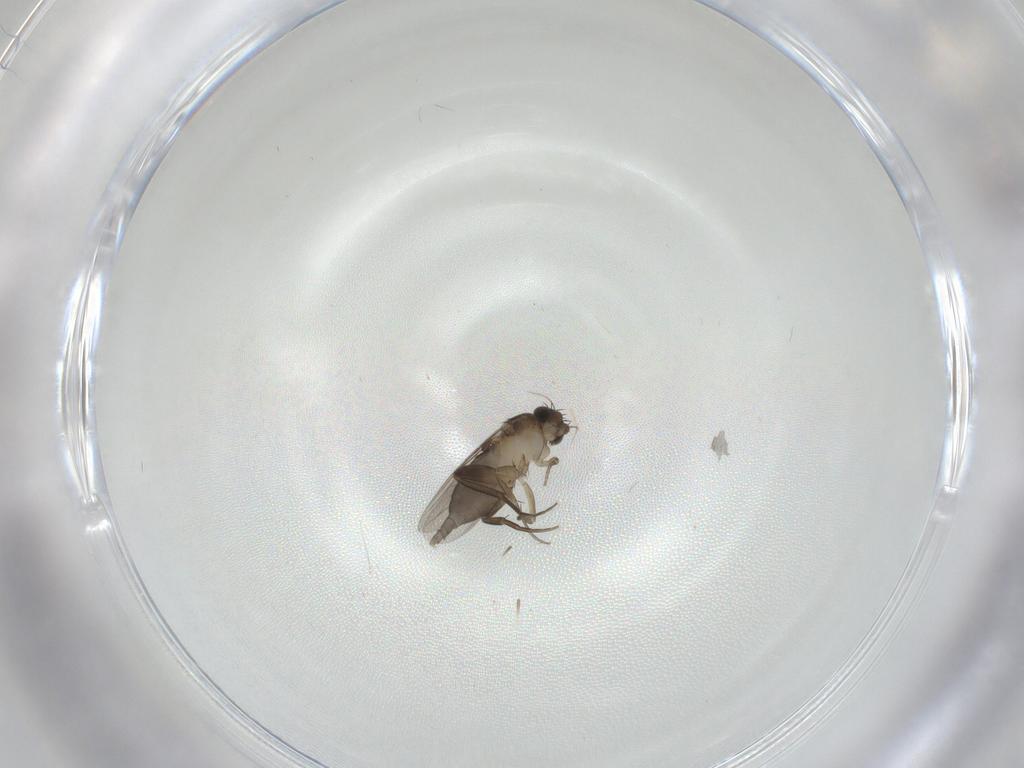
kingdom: Animalia
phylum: Arthropoda
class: Insecta
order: Diptera
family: Phoridae
